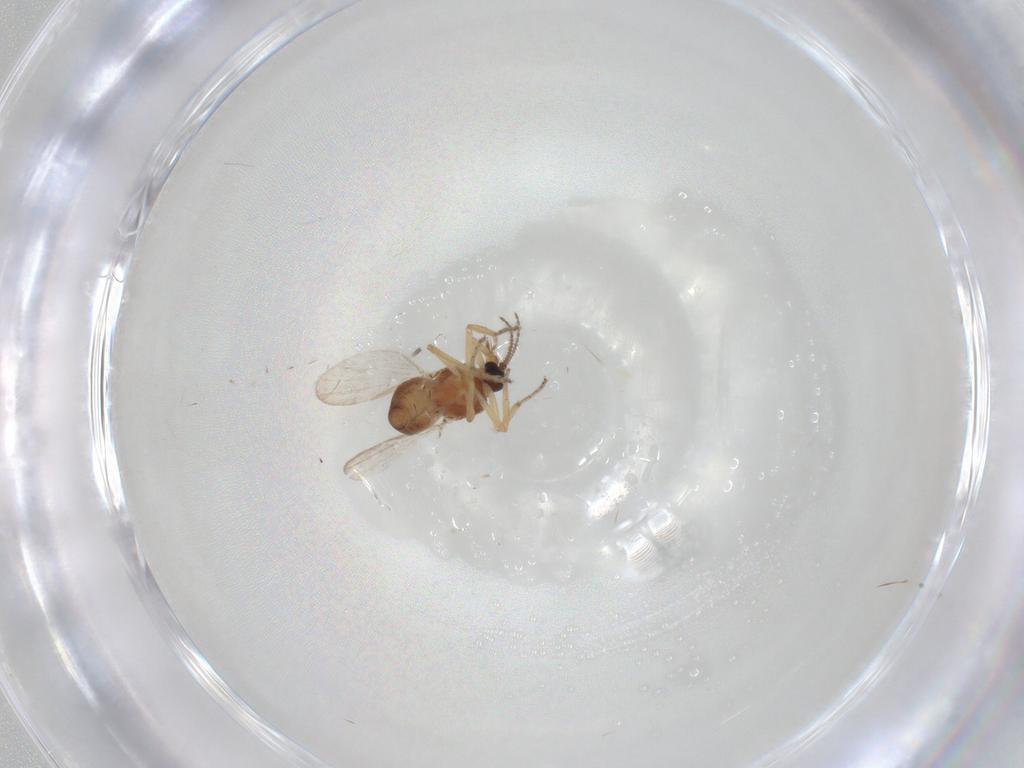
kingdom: Animalia
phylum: Arthropoda
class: Insecta
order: Diptera
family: Ceratopogonidae
